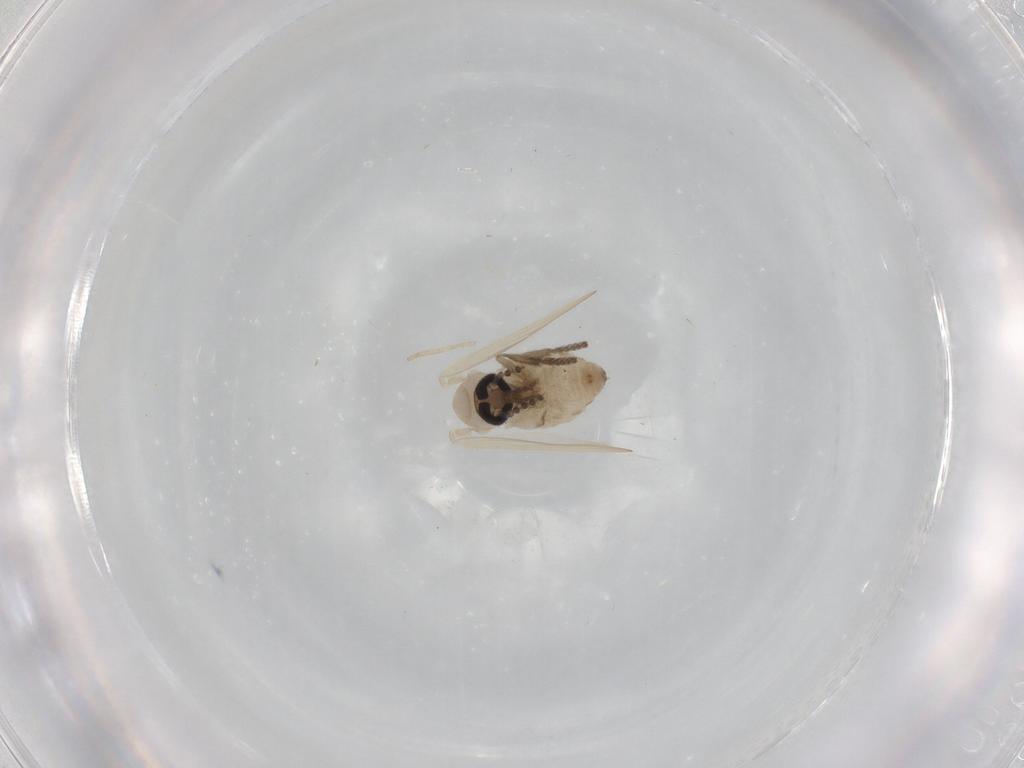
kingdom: Animalia
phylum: Arthropoda
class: Insecta
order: Diptera
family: Psychodidae
